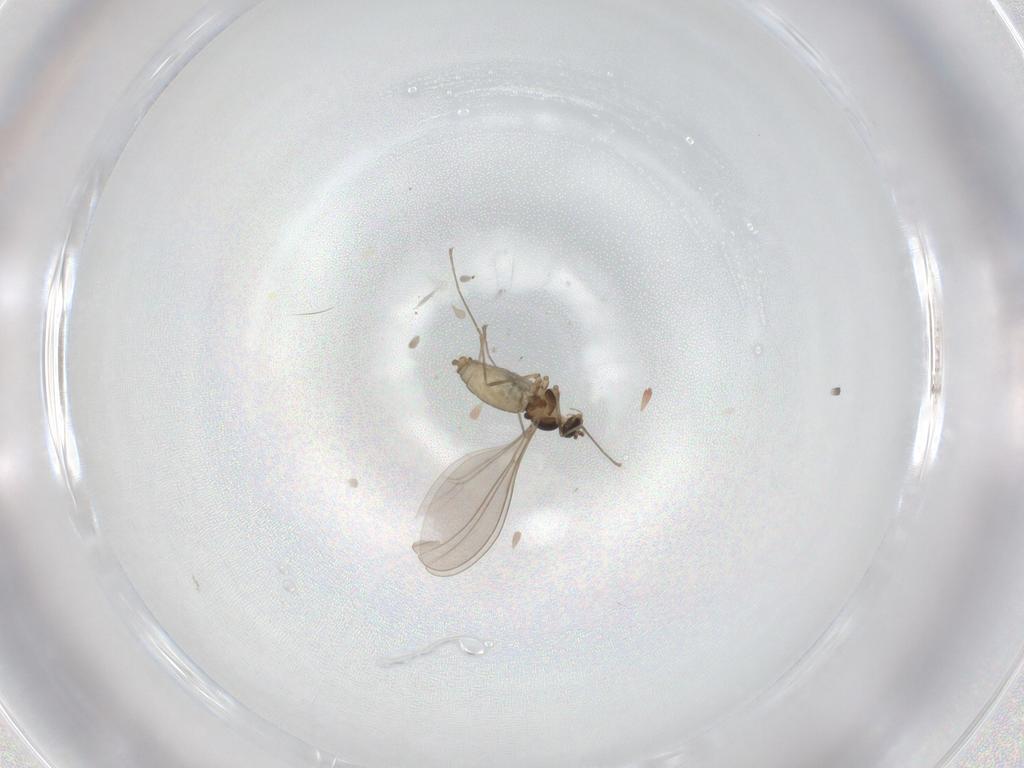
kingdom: Animalia
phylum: Arthropoda
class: Insecta
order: Diptera
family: Cecidomyiidae
